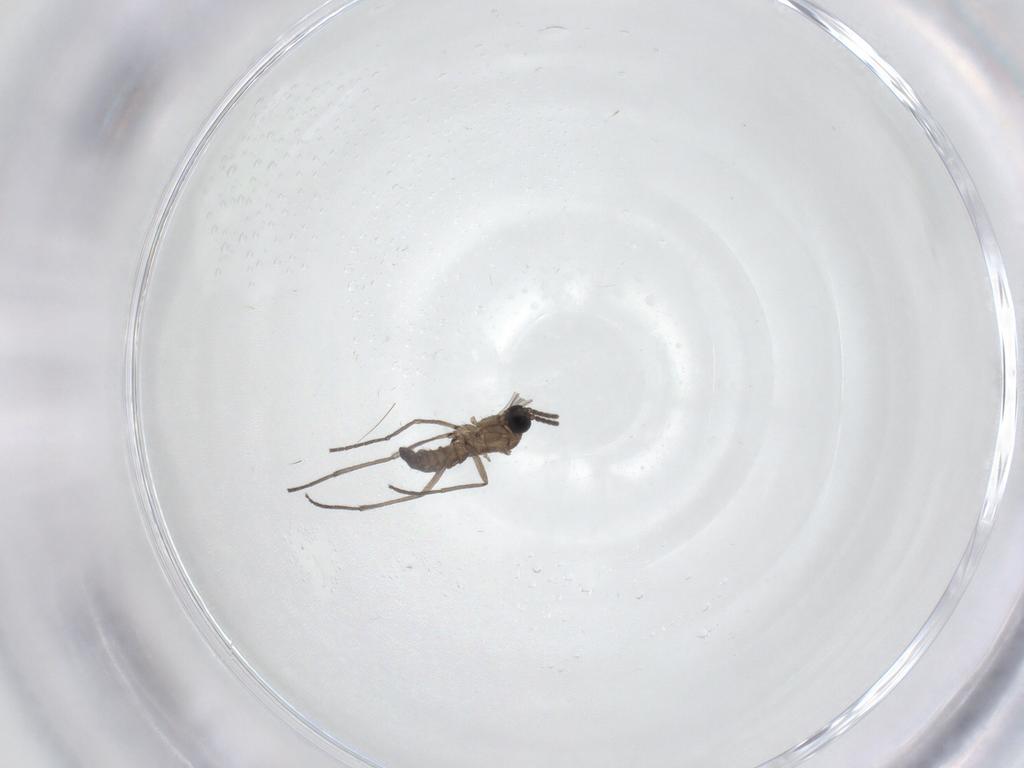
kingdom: Animalia
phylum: Arthropoda
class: Insecta
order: Diptera
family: Sciaridae
